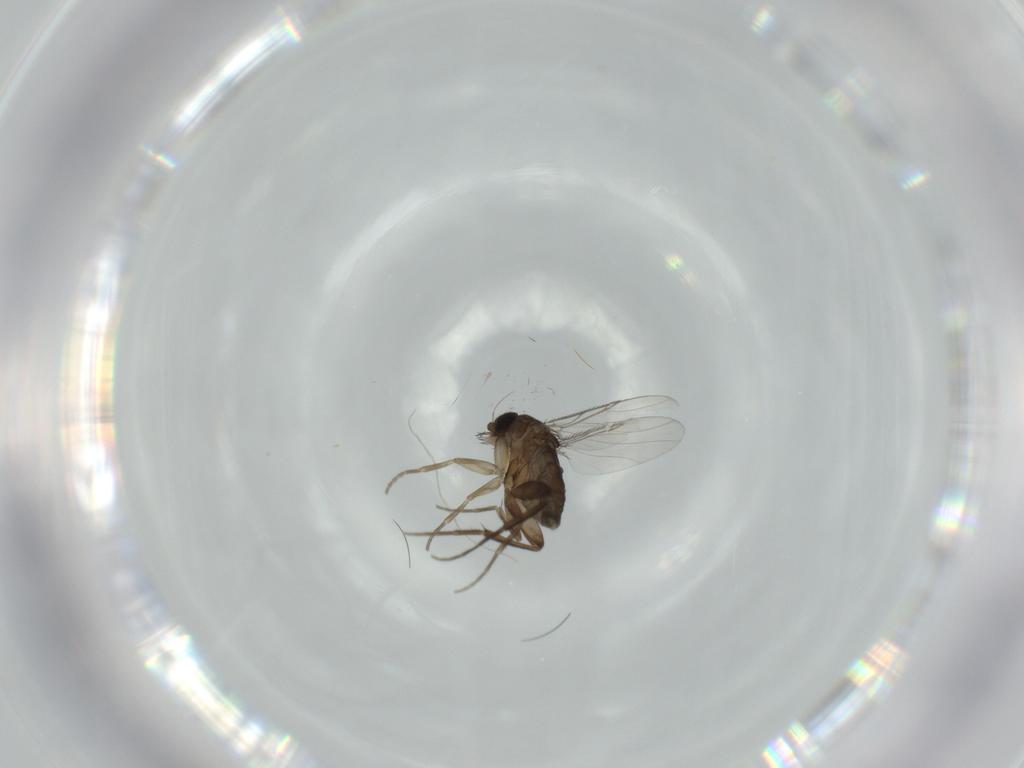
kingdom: Animalia
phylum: Arthropoda
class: Insecta
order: Diptera
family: Phoridae
